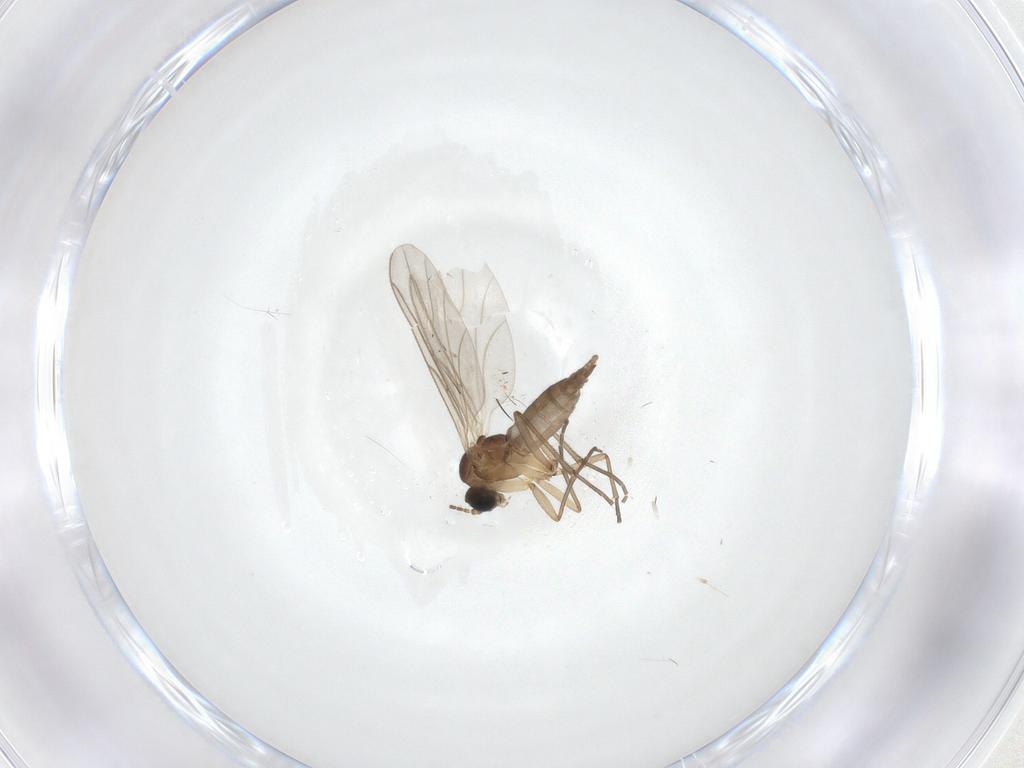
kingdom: Animalia
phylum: Arthropoda
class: Insecta
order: Diptera
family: Sciaridae
